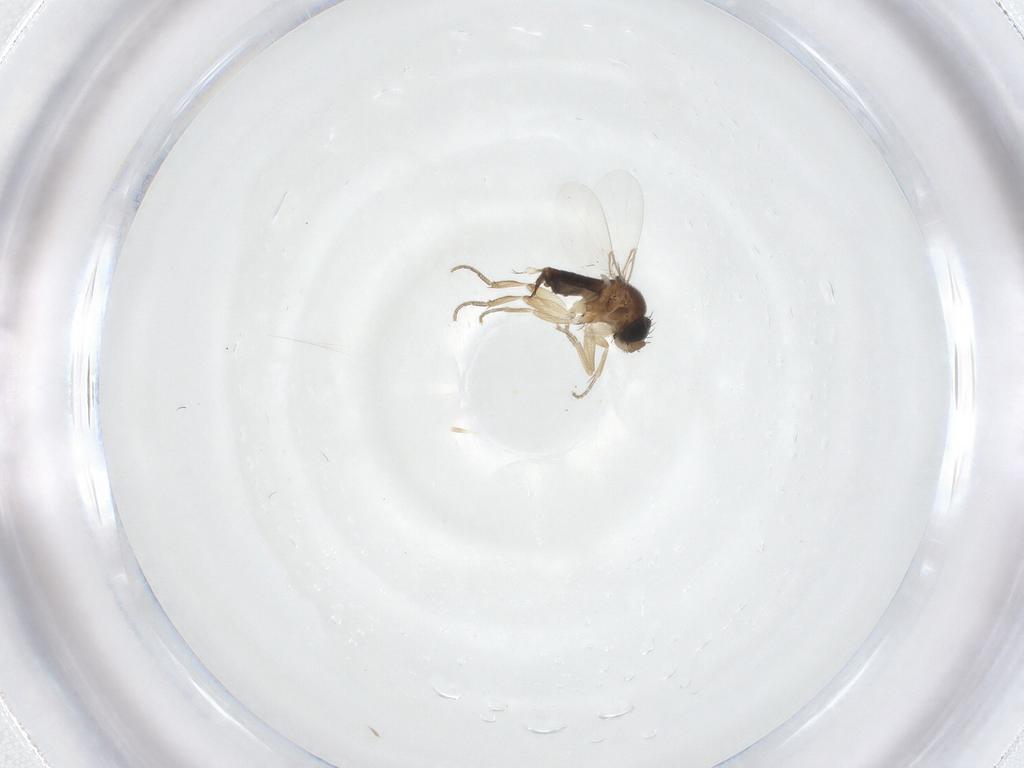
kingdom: Animalia
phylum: Arthropoda
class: Insecta
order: Diptera
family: Phoridae
